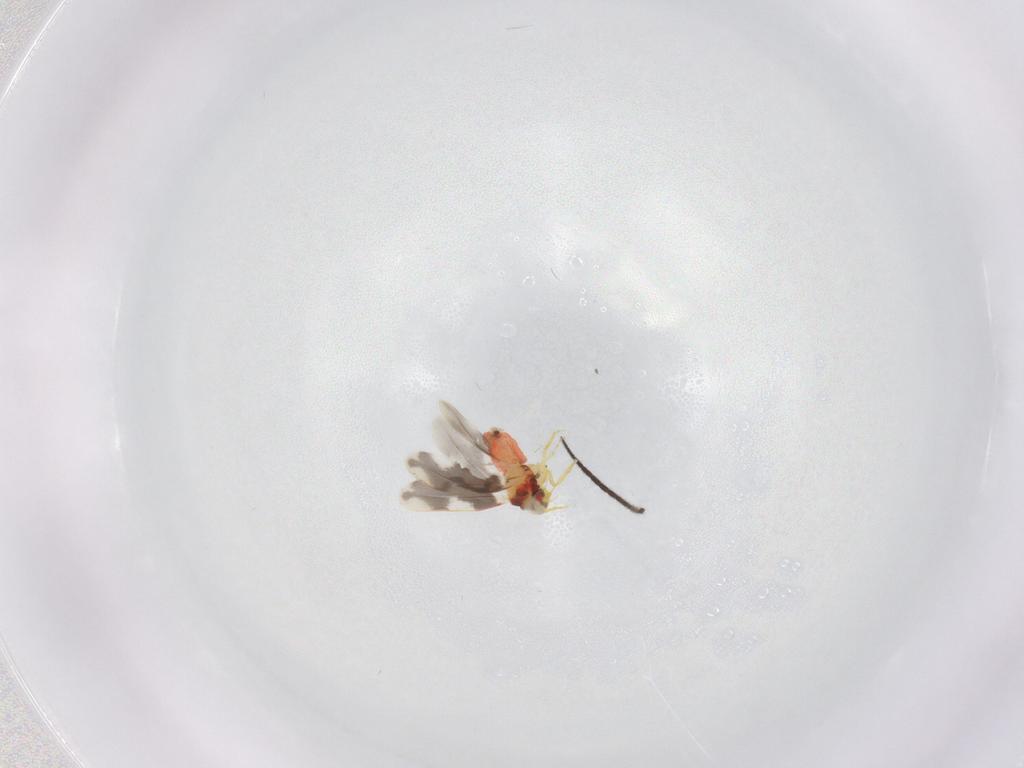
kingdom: Animalia
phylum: Arthropoda
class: Insecta
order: Hemiptera
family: Aleyrodidae
